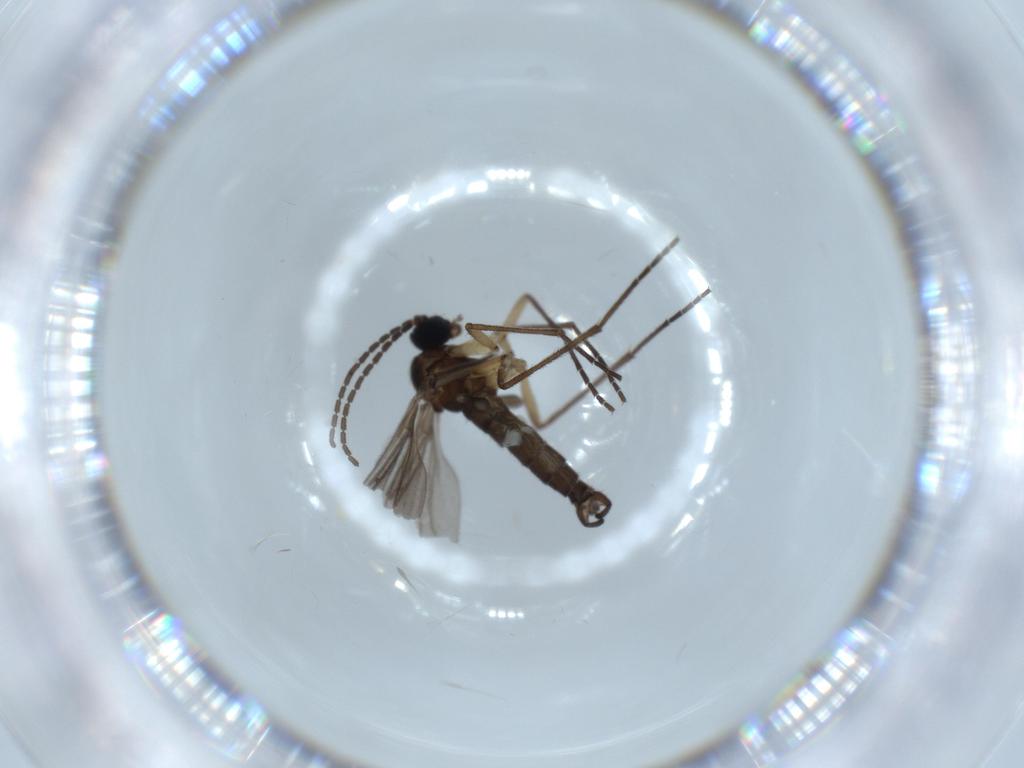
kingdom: Animalia
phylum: Arthropoda
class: Insecta
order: Diptera
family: Sciaridae
